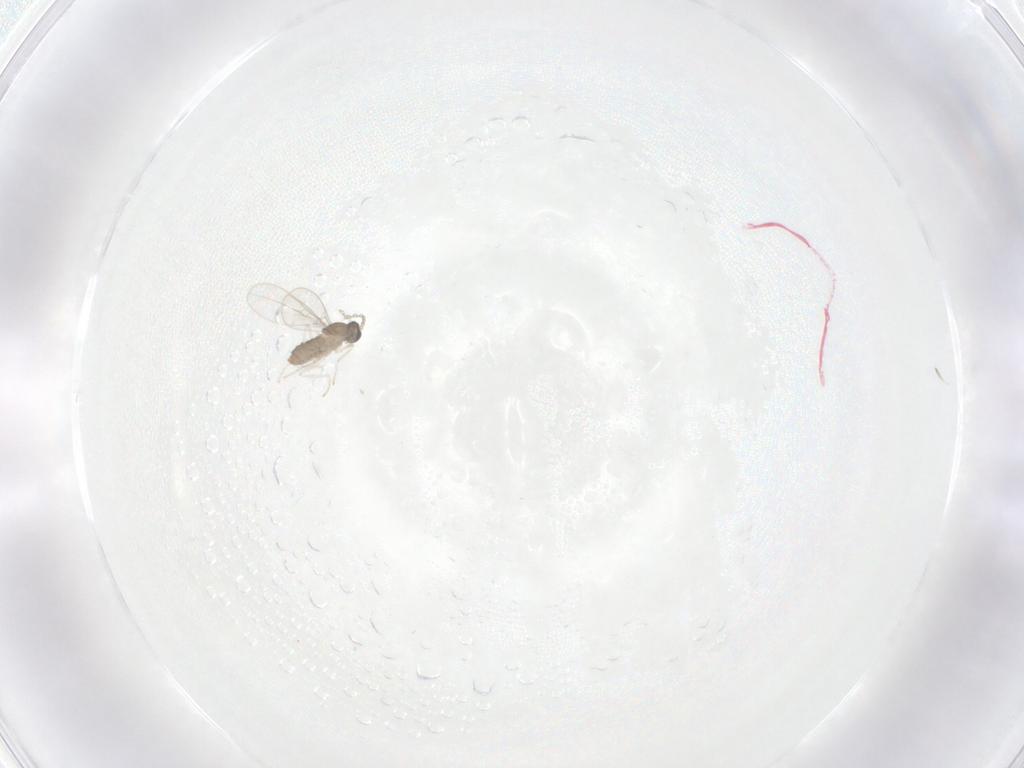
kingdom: Animalia
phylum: Arthropoda
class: Insecta
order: Diptera
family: Cecidomyiidae
